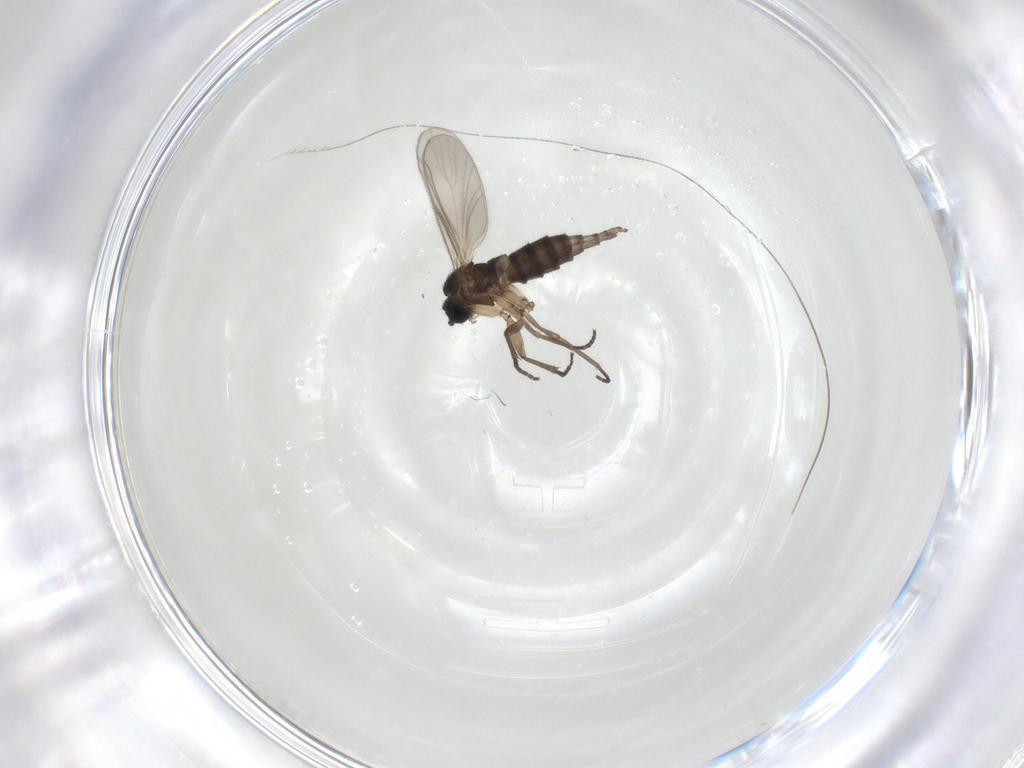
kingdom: Animalia
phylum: Arthropoda
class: Insecta
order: Diptera
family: Sciaridae
